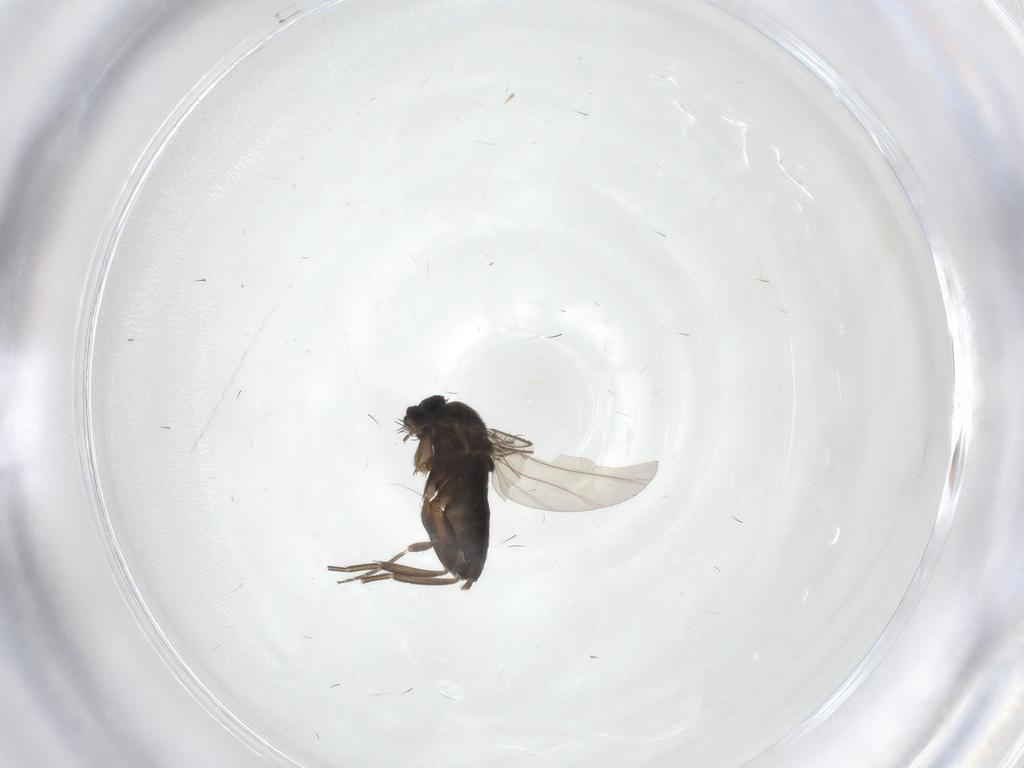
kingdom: Animalia
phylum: Arthropoda
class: Insecta
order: Diptera
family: Phoridae
